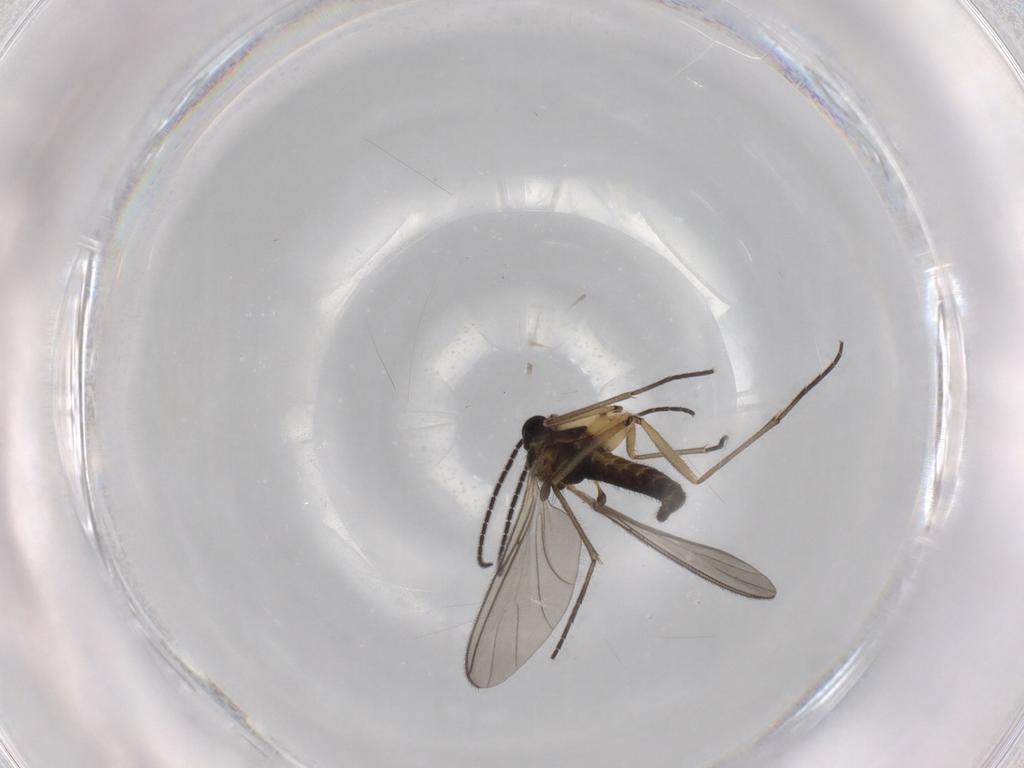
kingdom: Animalia
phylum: Arthropoda
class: Insecta
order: Diptera
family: Sciaridae
